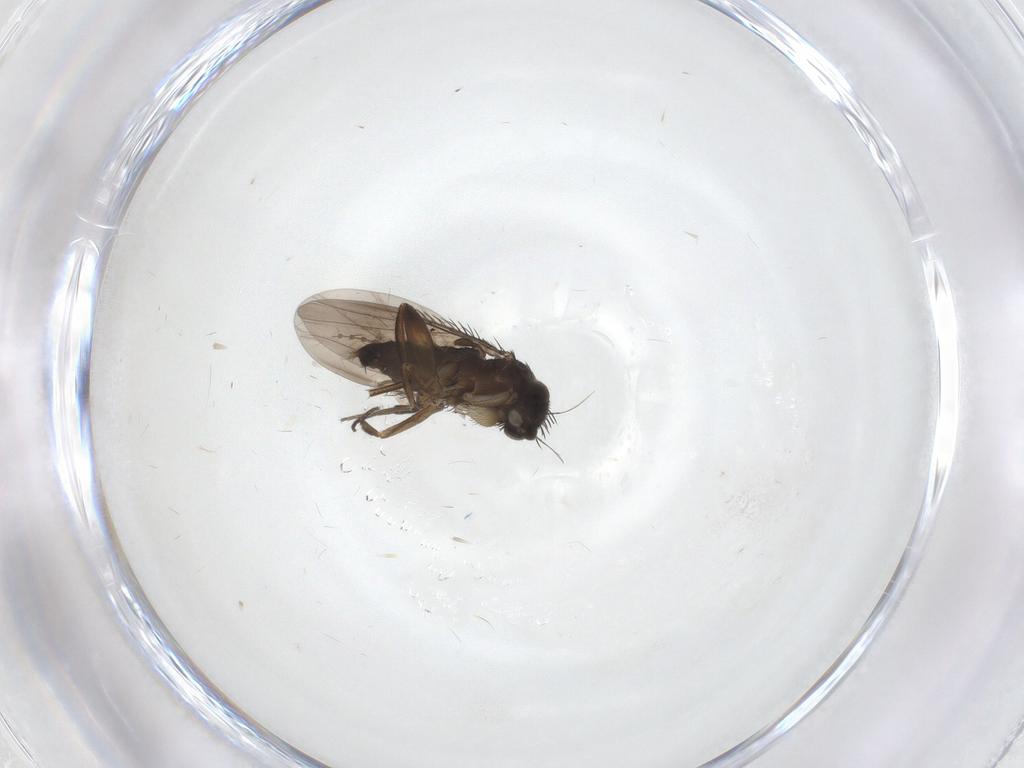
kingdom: Animalia
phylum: Arthropoda
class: Insecta
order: Diptera
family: Phoridae
